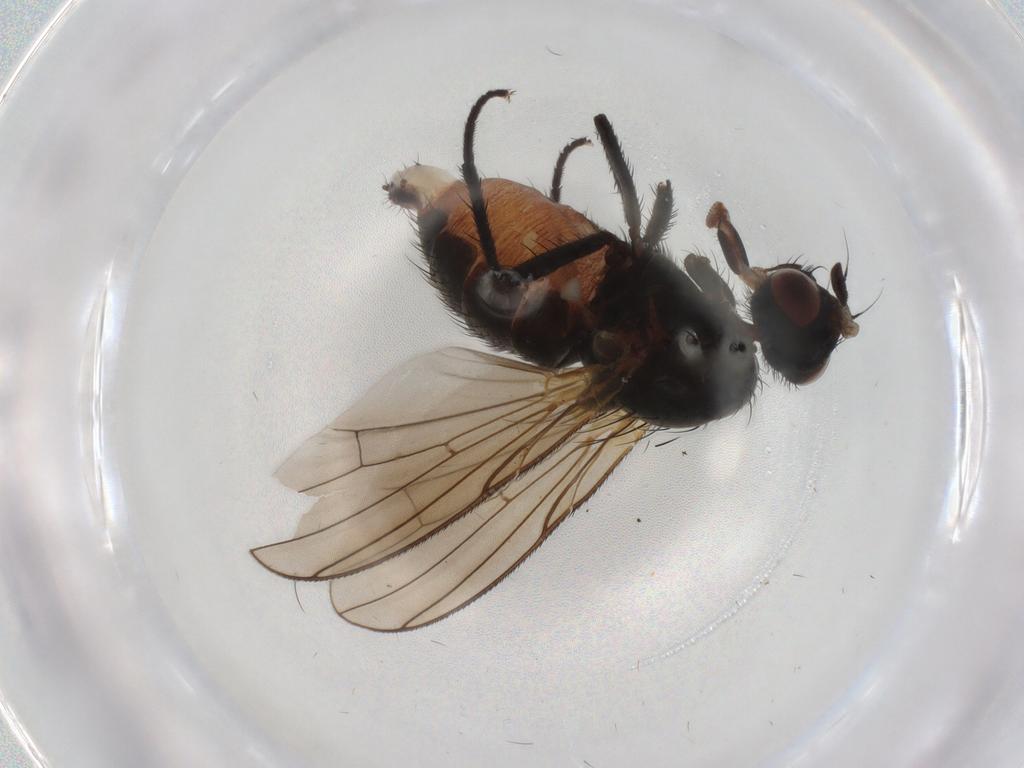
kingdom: Animalia
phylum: Arthropoda
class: Insecta
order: Diptera
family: Anthomyiidae
